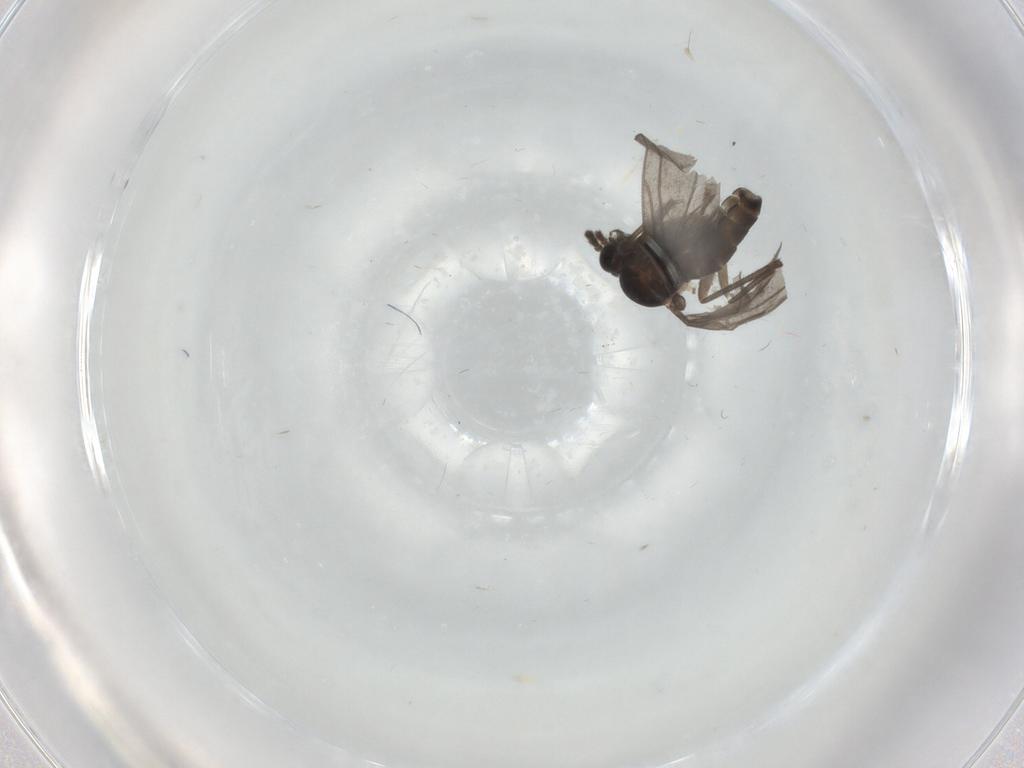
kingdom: Animalia
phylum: Arthropoda
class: Insecta
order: Diptera
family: Sciaridae
